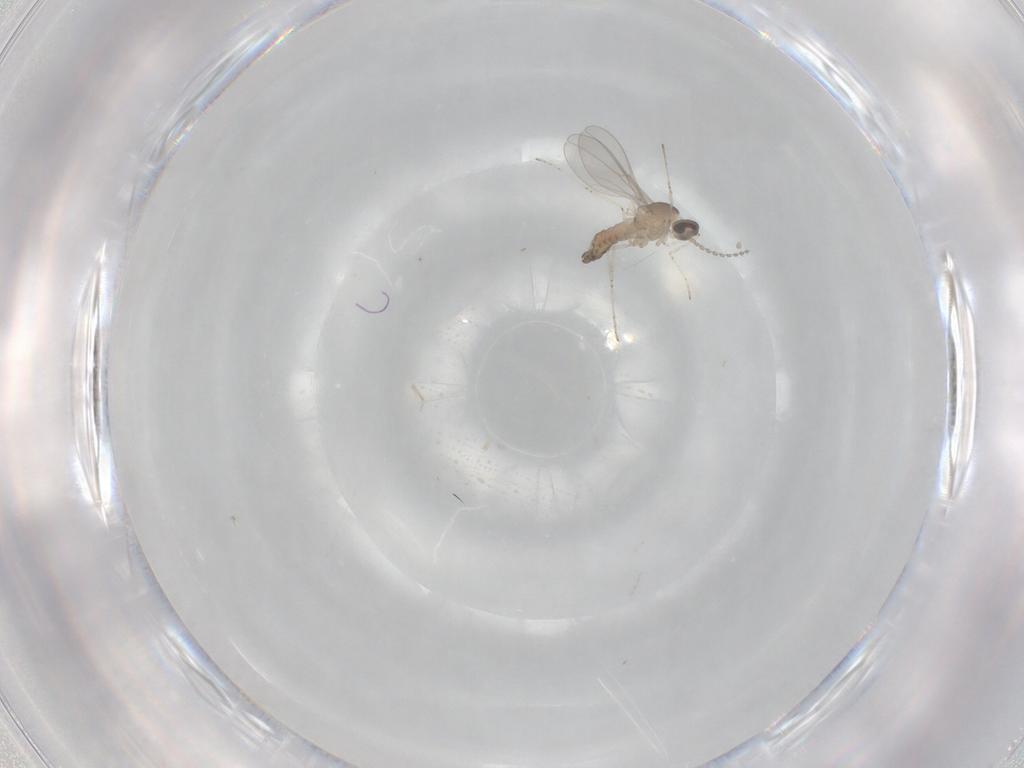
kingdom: Animalia
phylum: Arthropoda
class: Insecta
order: Diptera
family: Cecidomyiidae
